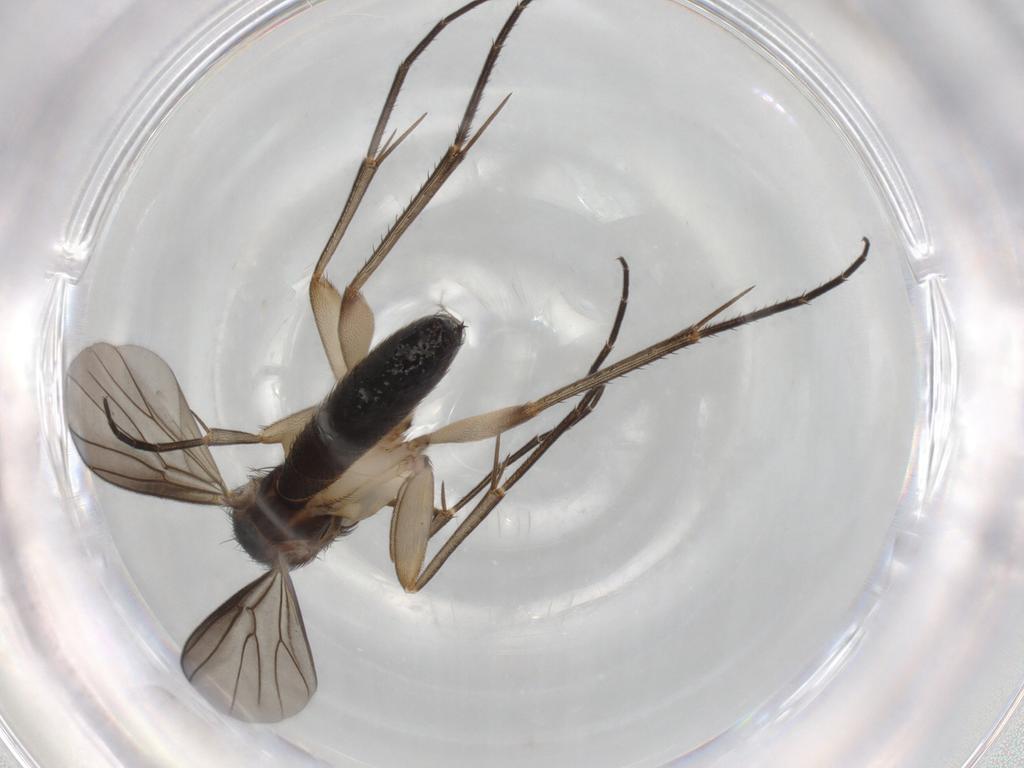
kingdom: Animalia
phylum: Arthropoda
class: Insecta
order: Diptera
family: Mycetophilidae
